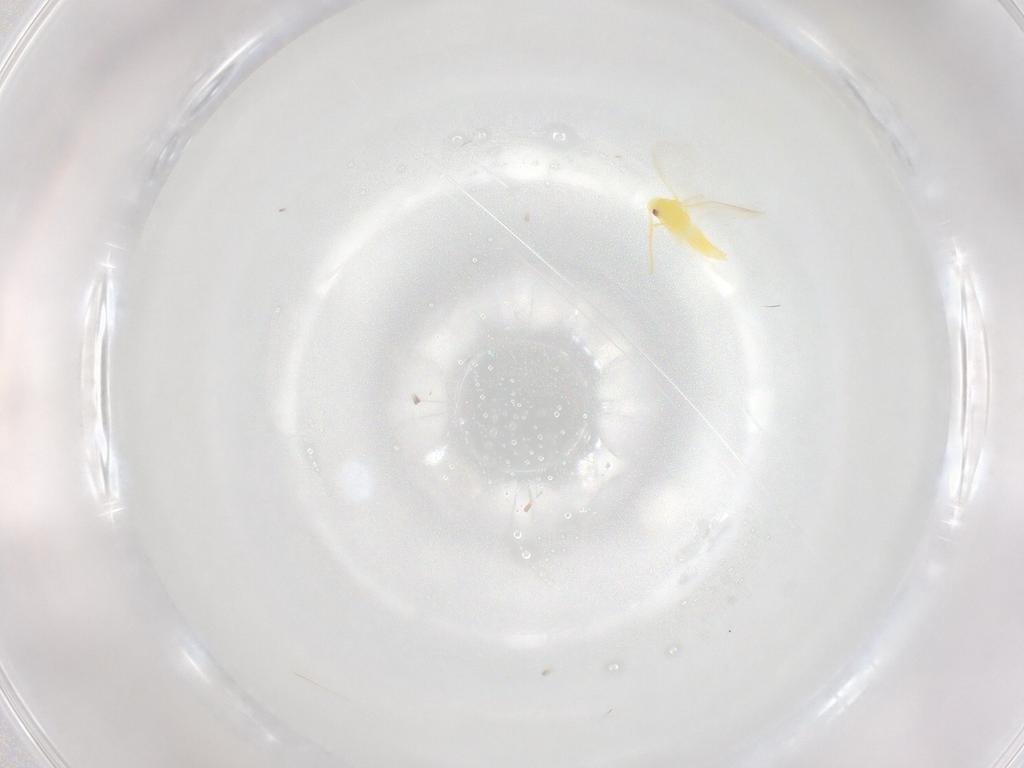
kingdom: Animalia
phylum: Arthropoda
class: Insecta
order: Hemiptera
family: Aleyrodidae
